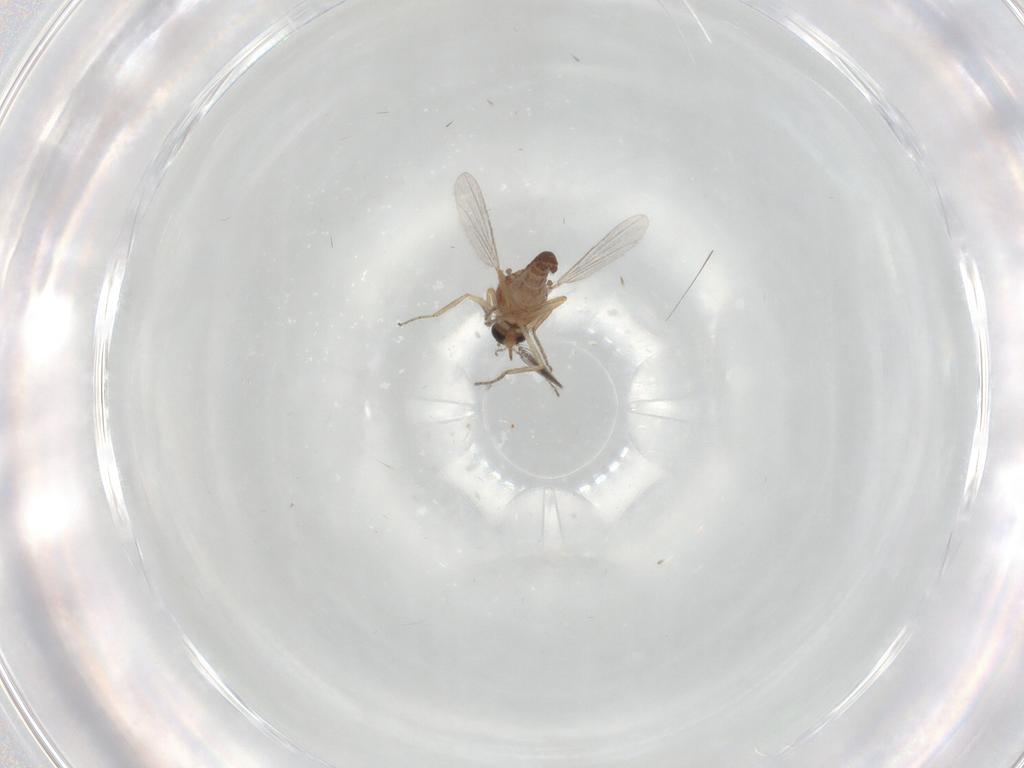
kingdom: Animalia
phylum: Arthropoda
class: Insecta
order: Diptera
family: Ceratopogonidae
